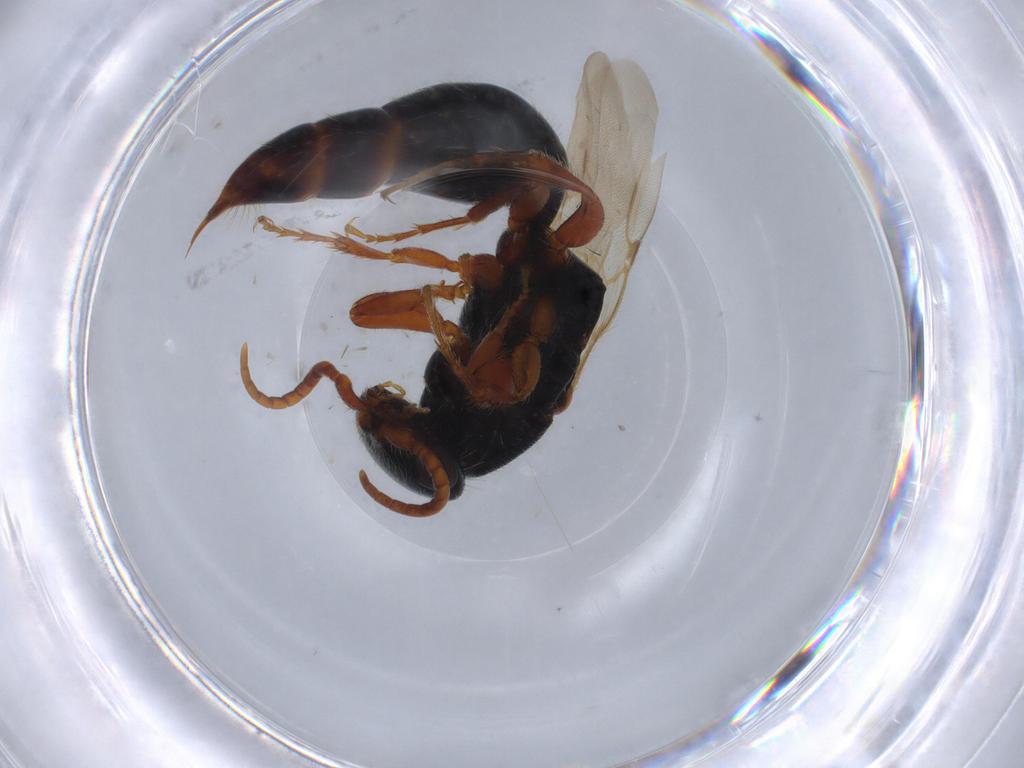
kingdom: Animalia
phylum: Arthropoda
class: Insecta
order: Hymenoptera
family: Bethylidae
